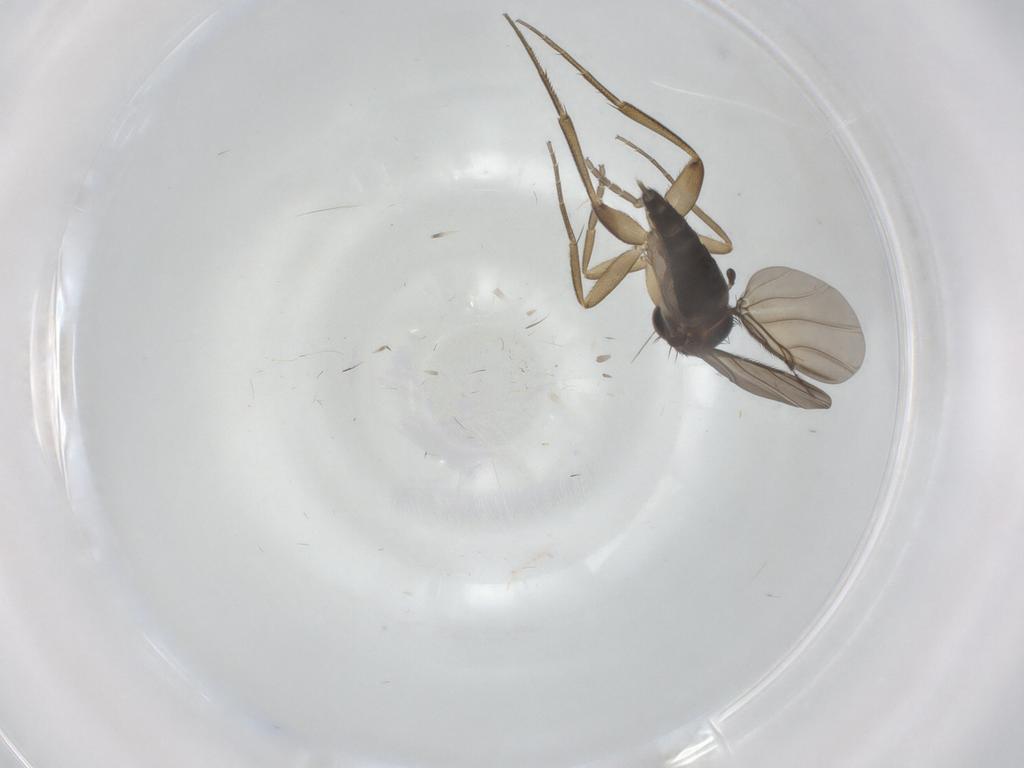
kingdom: Animalia
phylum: Arthropoda
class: Insecta
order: Diptera
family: Phoridae
